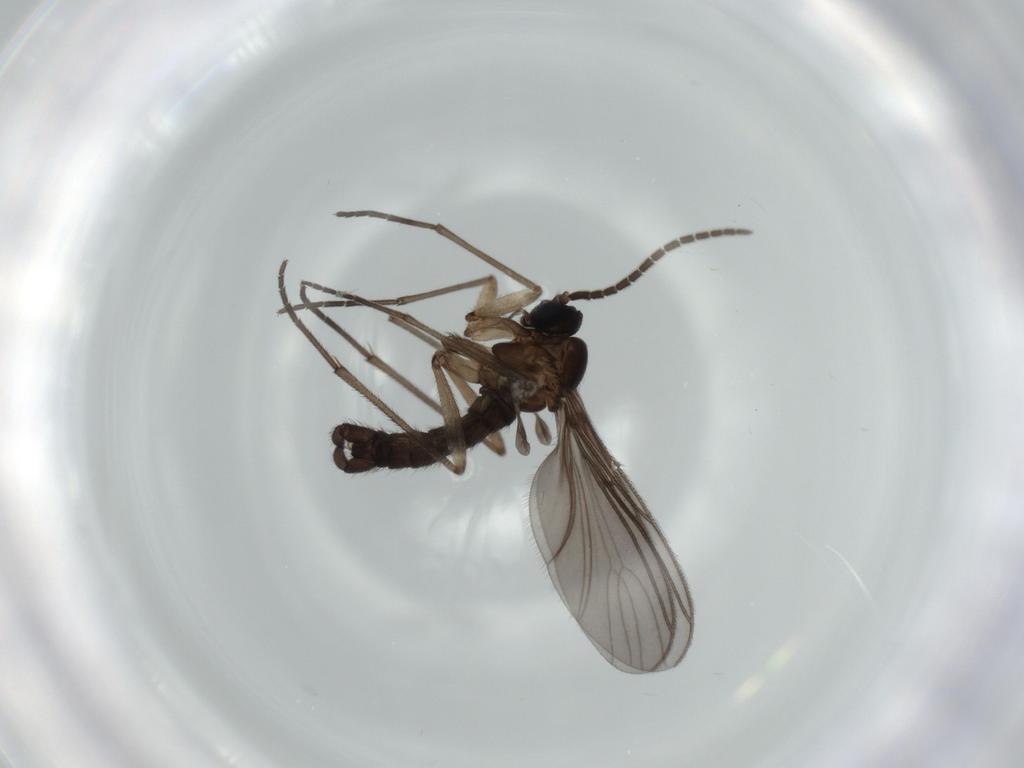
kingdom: Animalia
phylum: Arthropoda
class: Insecta
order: Diptera
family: Sciaridae
